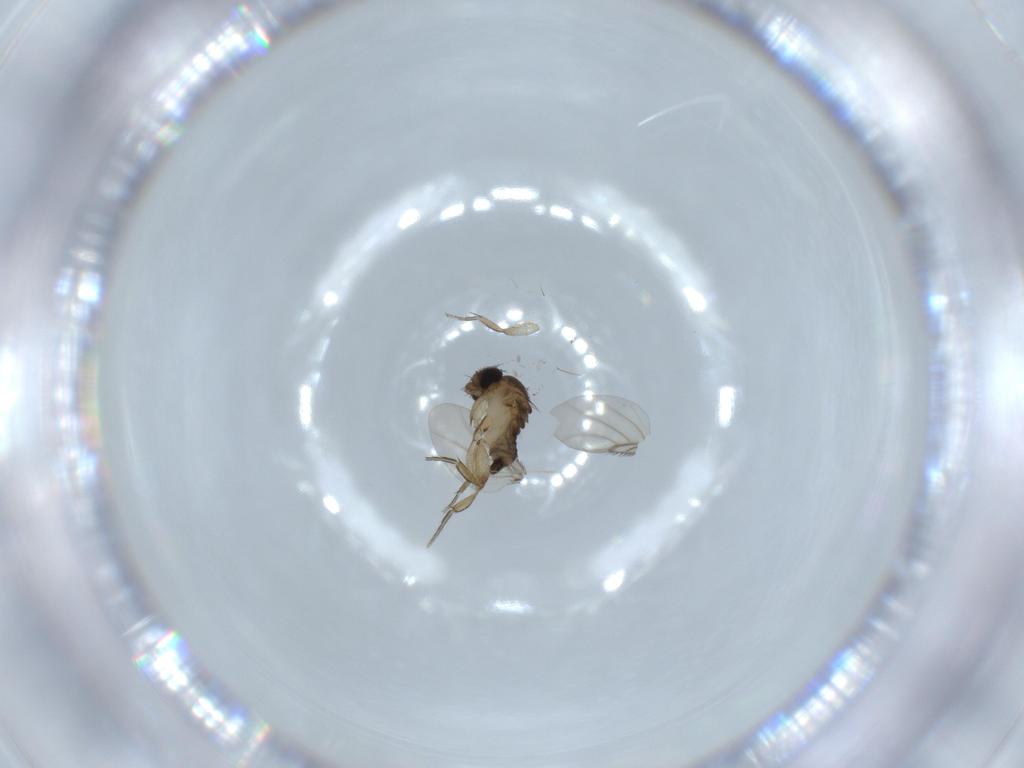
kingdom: Animalia
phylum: Arthropoda
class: Insecta
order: Diptera
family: Phoridae
